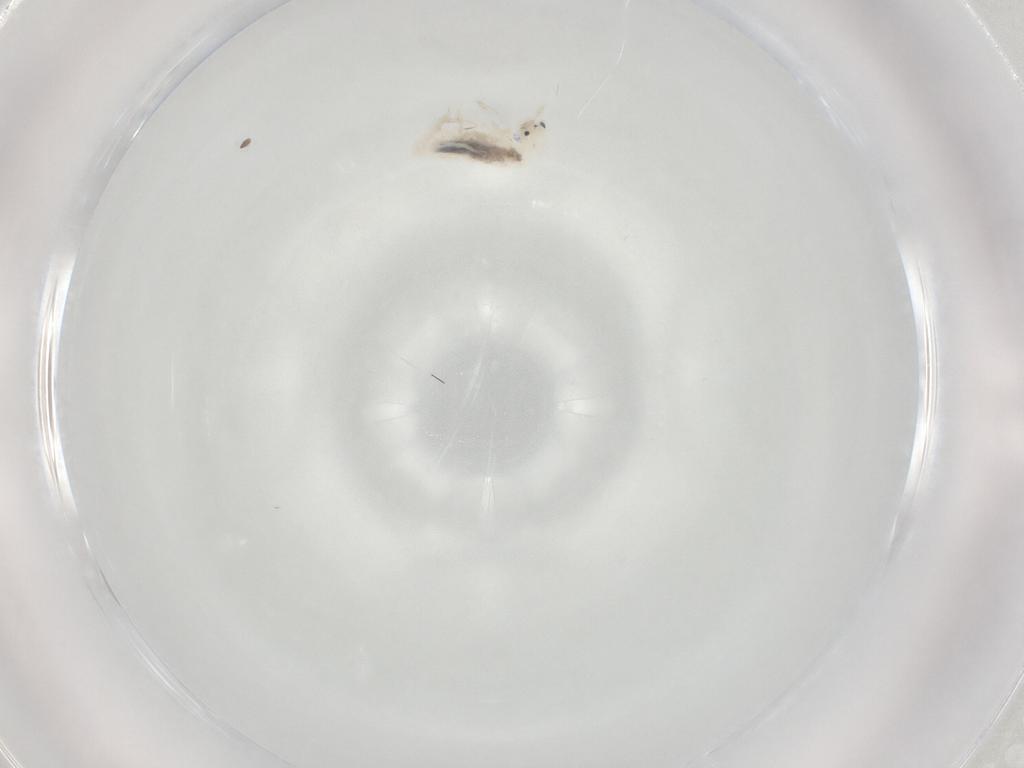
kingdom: Animalia
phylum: Arthropoda
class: Collembola
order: Entomobryomorpha
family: Entomobryidae
